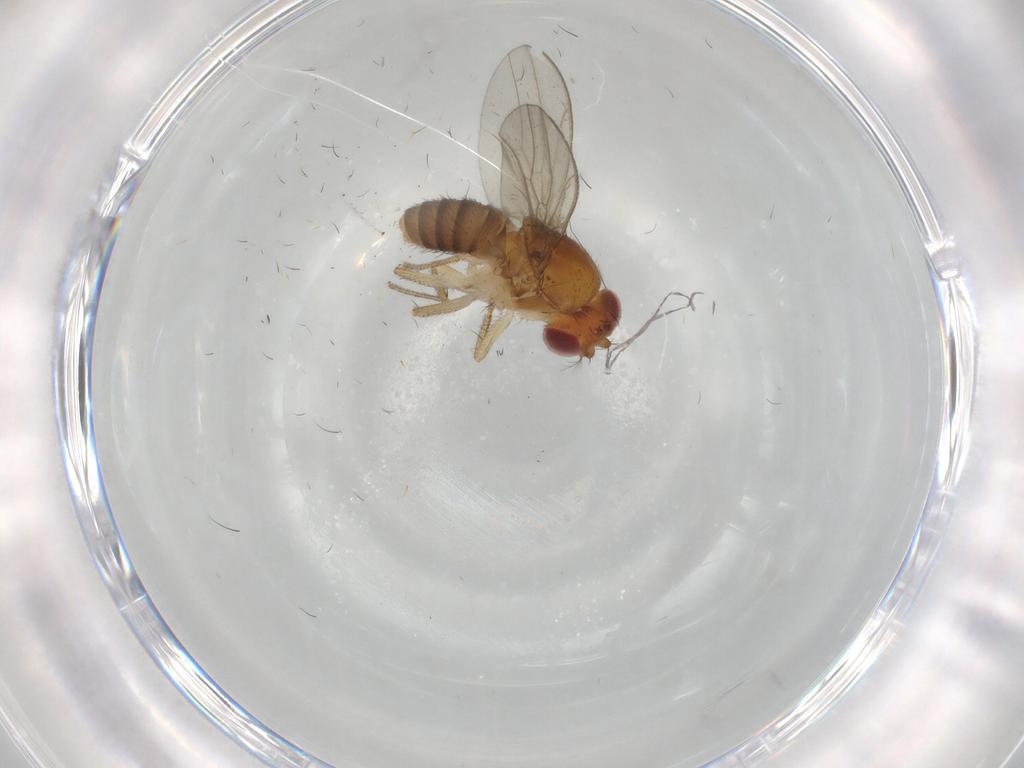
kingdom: Animalia
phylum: Arthropoda
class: Insecta
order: Diptera
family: Drosophilidae
